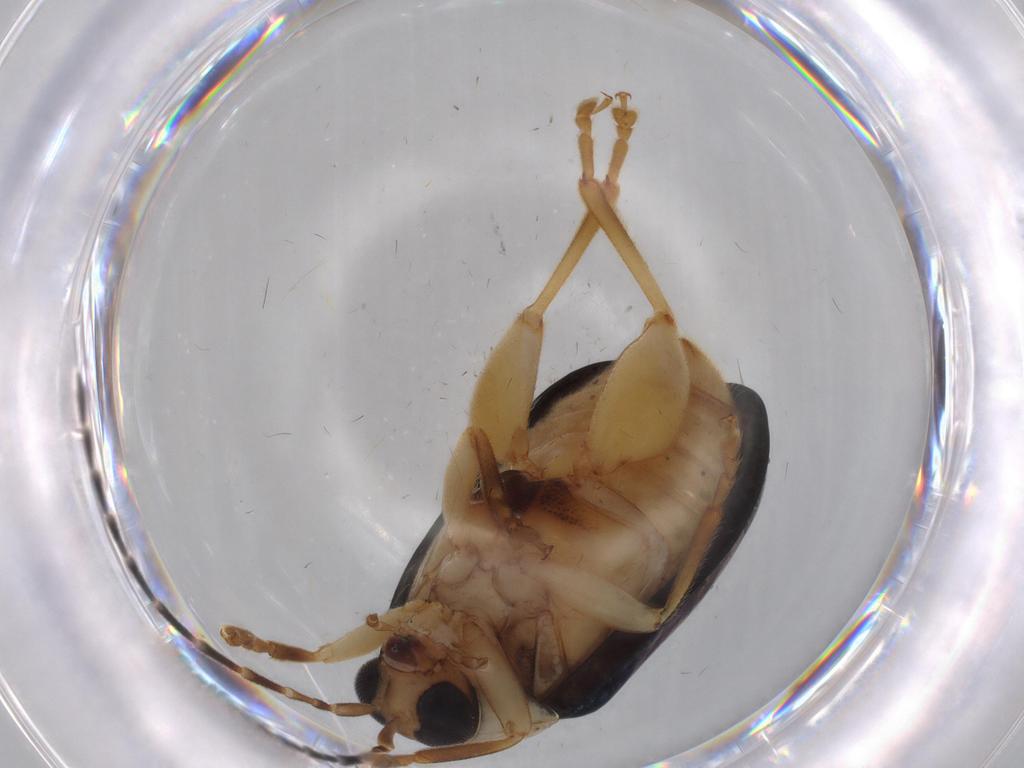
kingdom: Animalia
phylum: Arthropoda
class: Insecta
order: Coleoptera
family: Chrysomelidae
